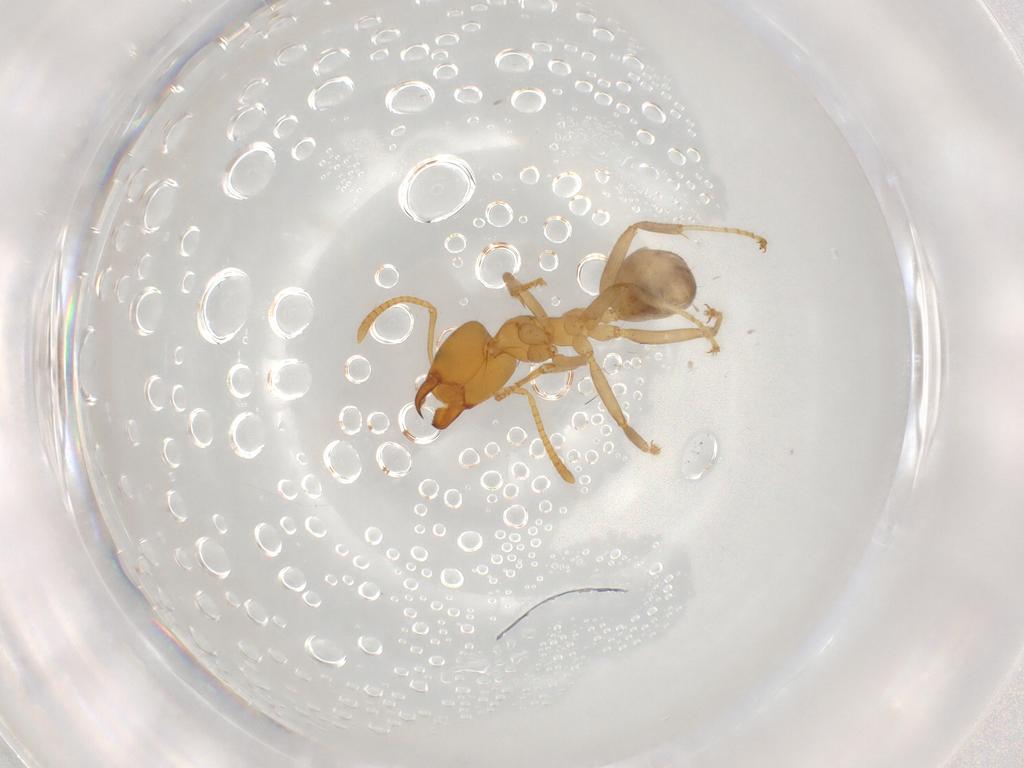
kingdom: Animalia
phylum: Arthropoda
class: Insecta
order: Hymenoptera
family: Formicidae
